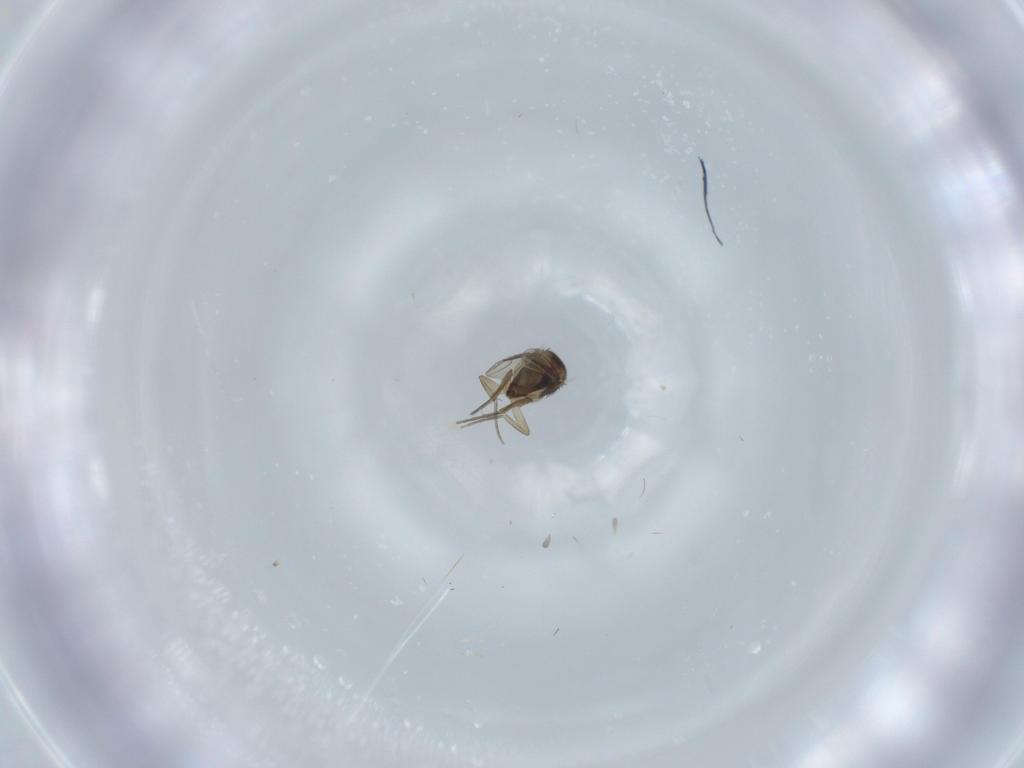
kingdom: Animalia
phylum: Arthropoda
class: Insecta
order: Diptera
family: Phoridae
